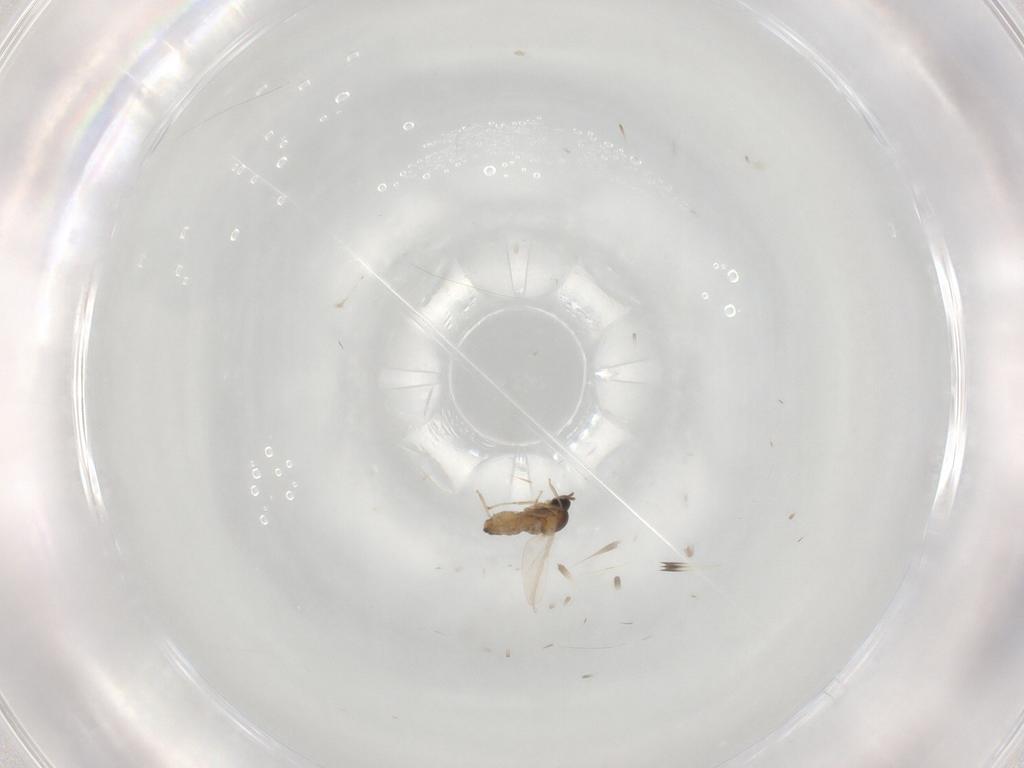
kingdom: Animalia
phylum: Arthropoda
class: Insecta
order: Diptera
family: Cecidomyiidae
